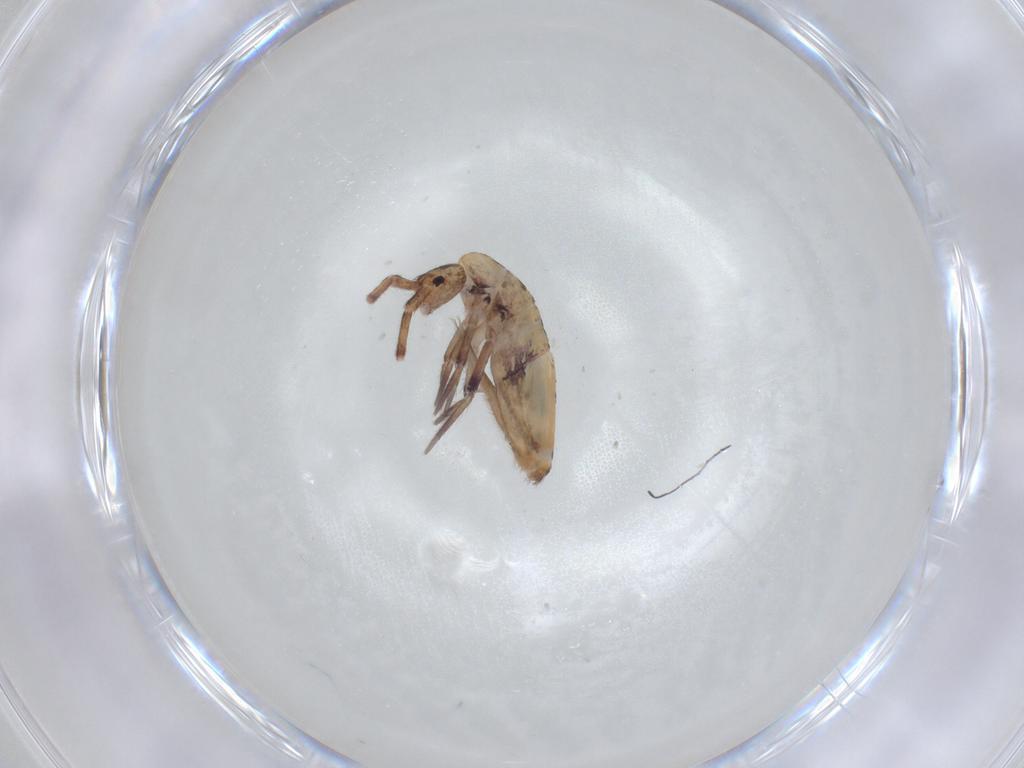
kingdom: Animalia
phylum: Arthropoda
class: Collembola
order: Entomobryomorpha
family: Entomobryidae
